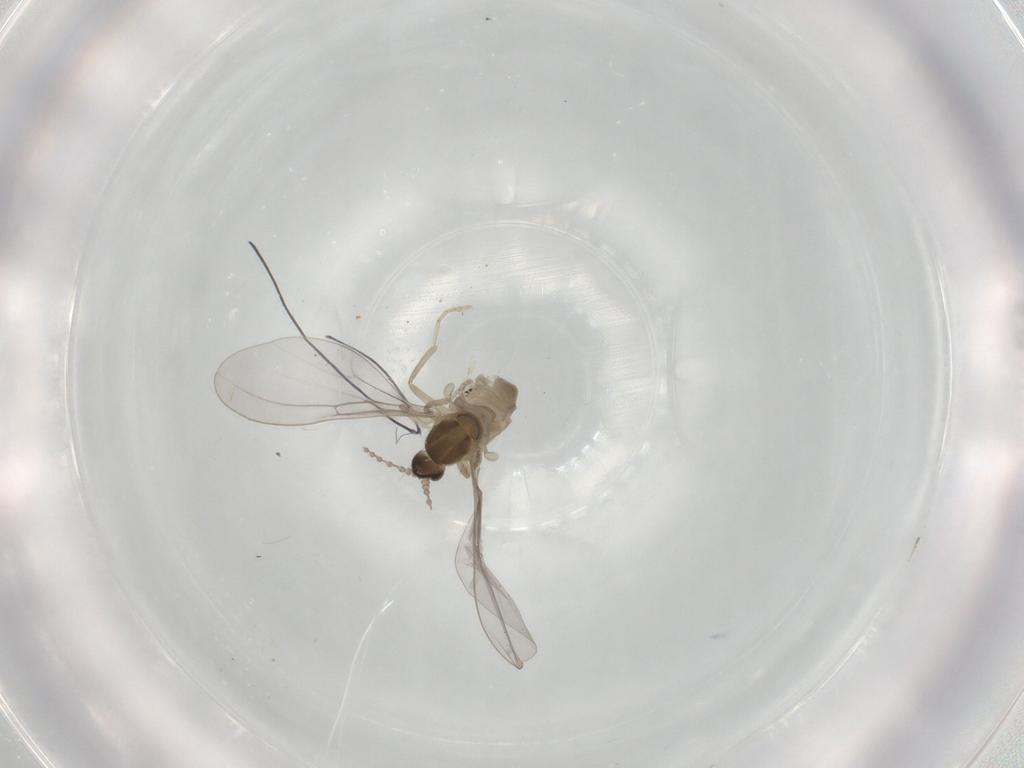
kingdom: Animalia
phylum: Arthropoda
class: Insecta
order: Diptera
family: Cecidomyiidae
